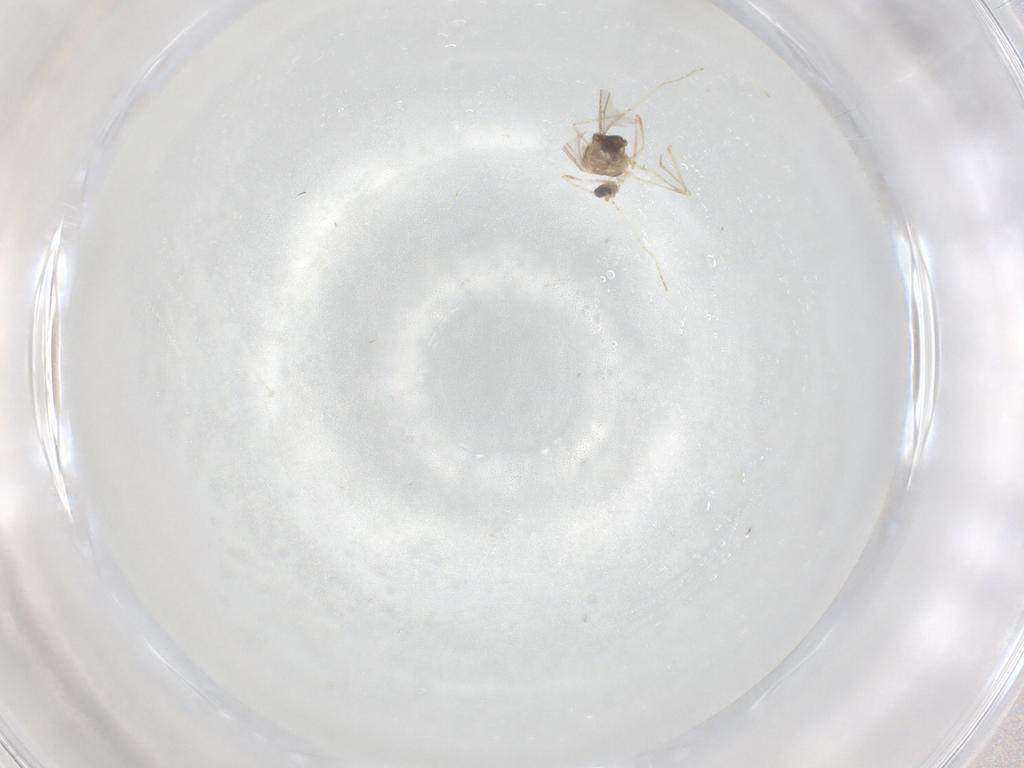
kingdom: Animalia
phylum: Arthropoda
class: Insecta
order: Diptera
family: Cecidomyiidae
